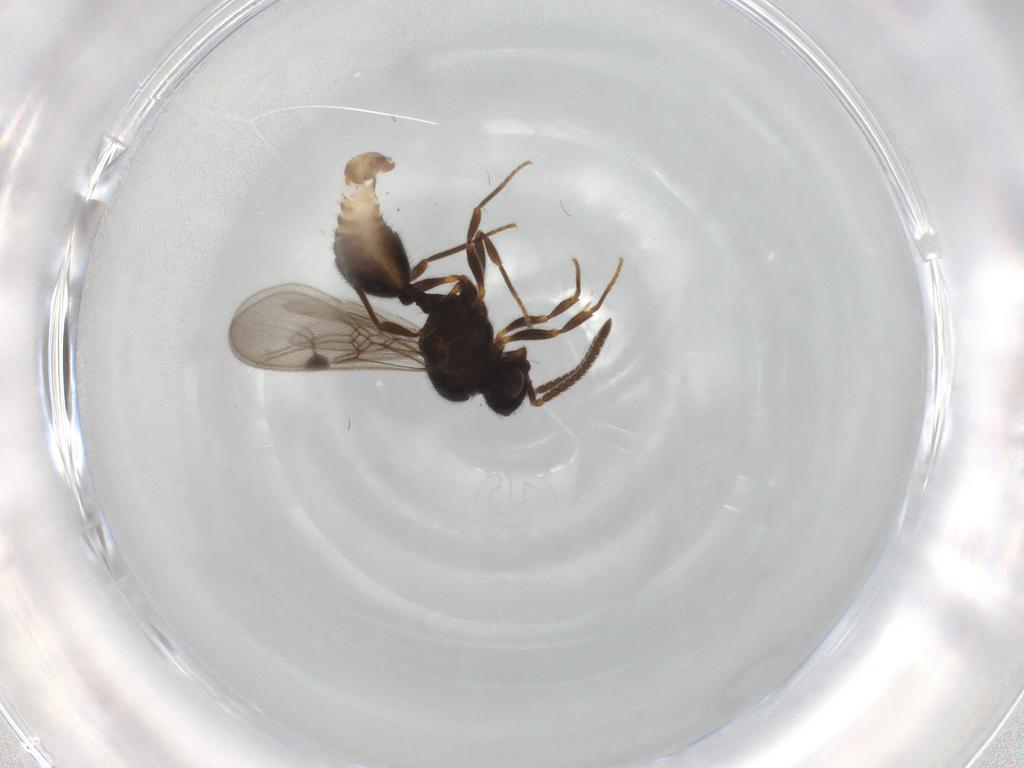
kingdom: Animalia
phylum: Arthropoda
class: Insecta
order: Hymenoptera
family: Formicidae
